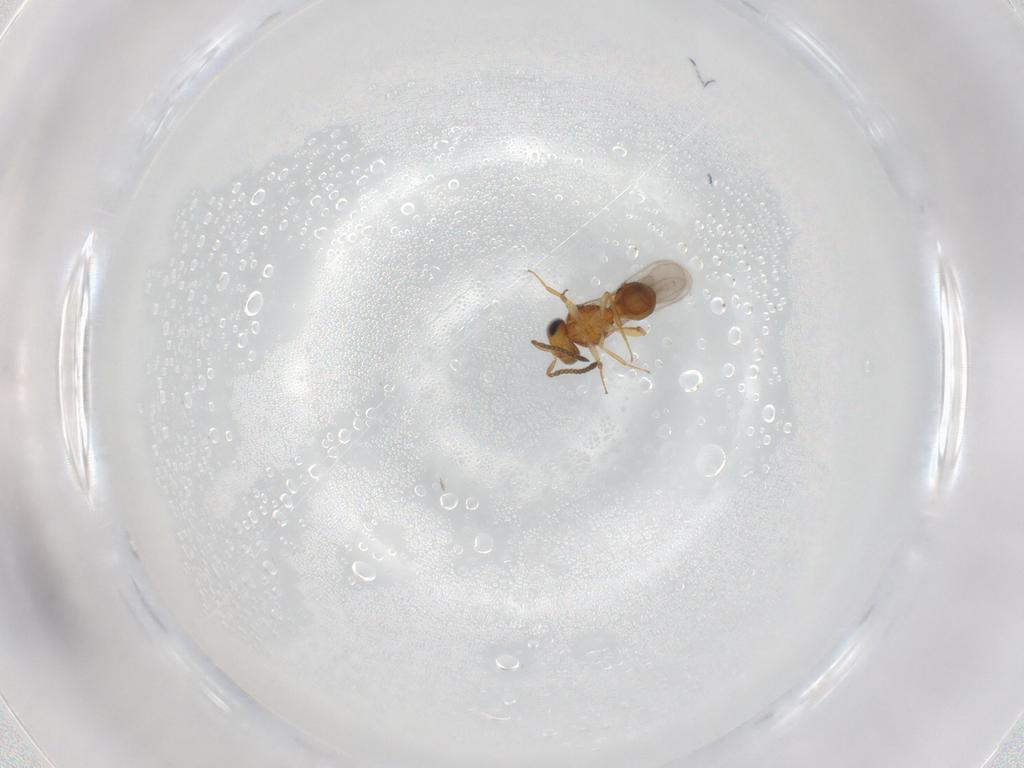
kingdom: Animalia
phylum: Arthropoda
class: Insecta
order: Hymenoptera
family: Scelionidae
